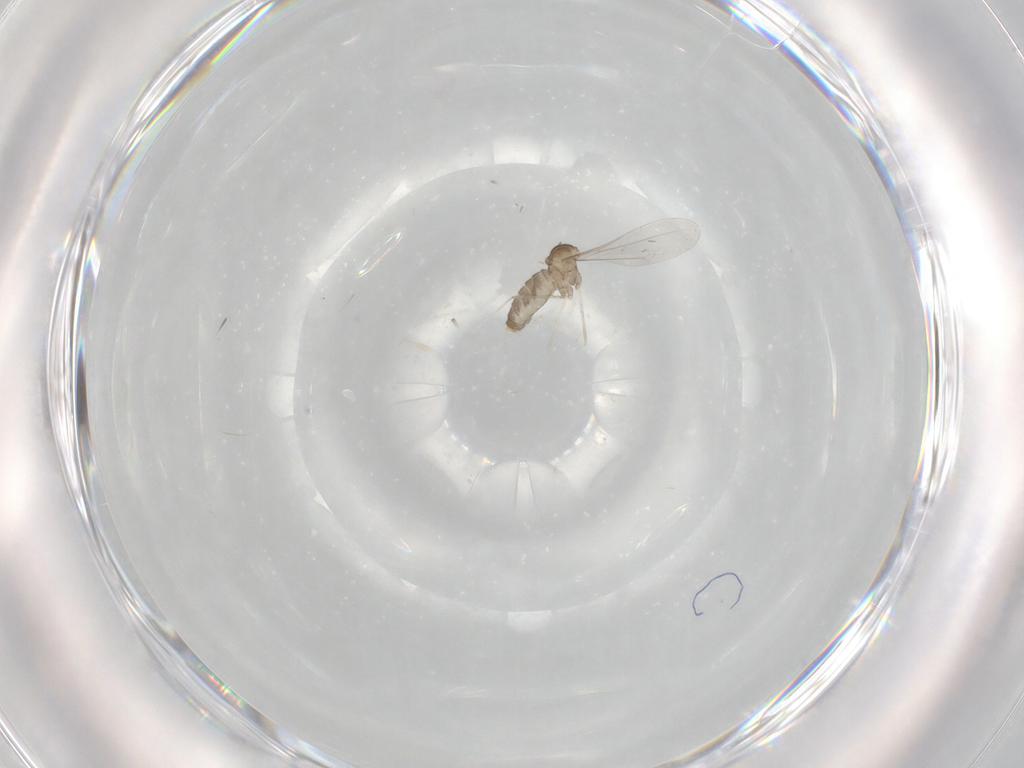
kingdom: Animalia
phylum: Arthropoda
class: Insecta
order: Diptera
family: Cecidomyiidae
